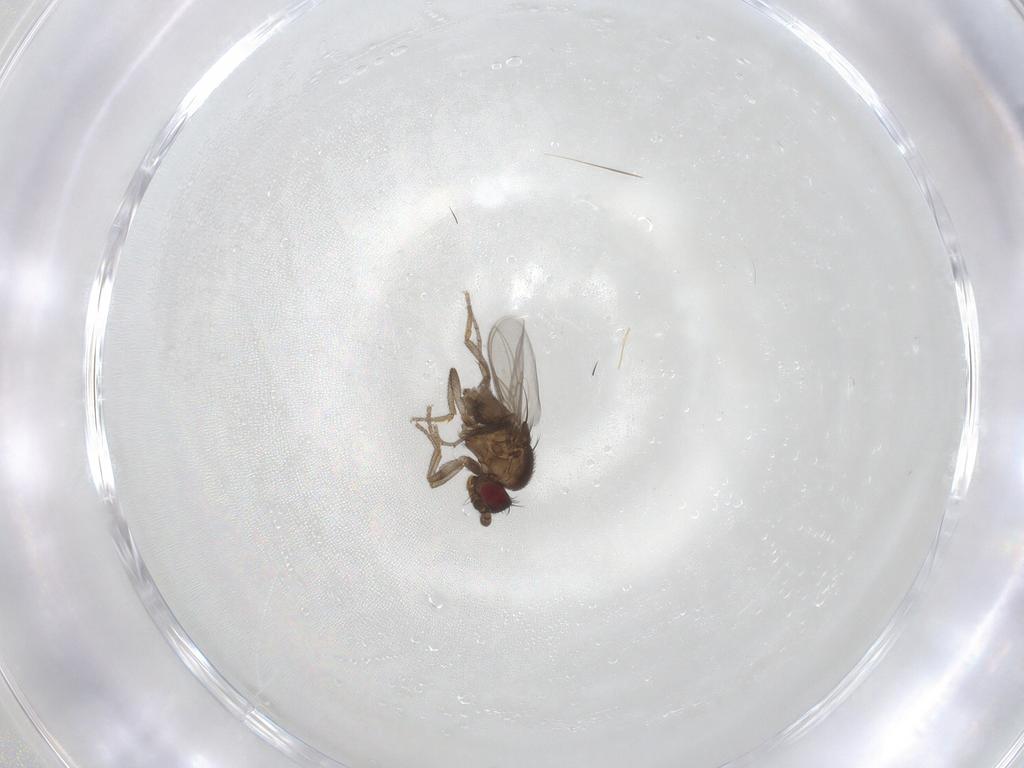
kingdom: Animalia
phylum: Arthropoda
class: Insecta
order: Diptera
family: Sphaeroceridae
